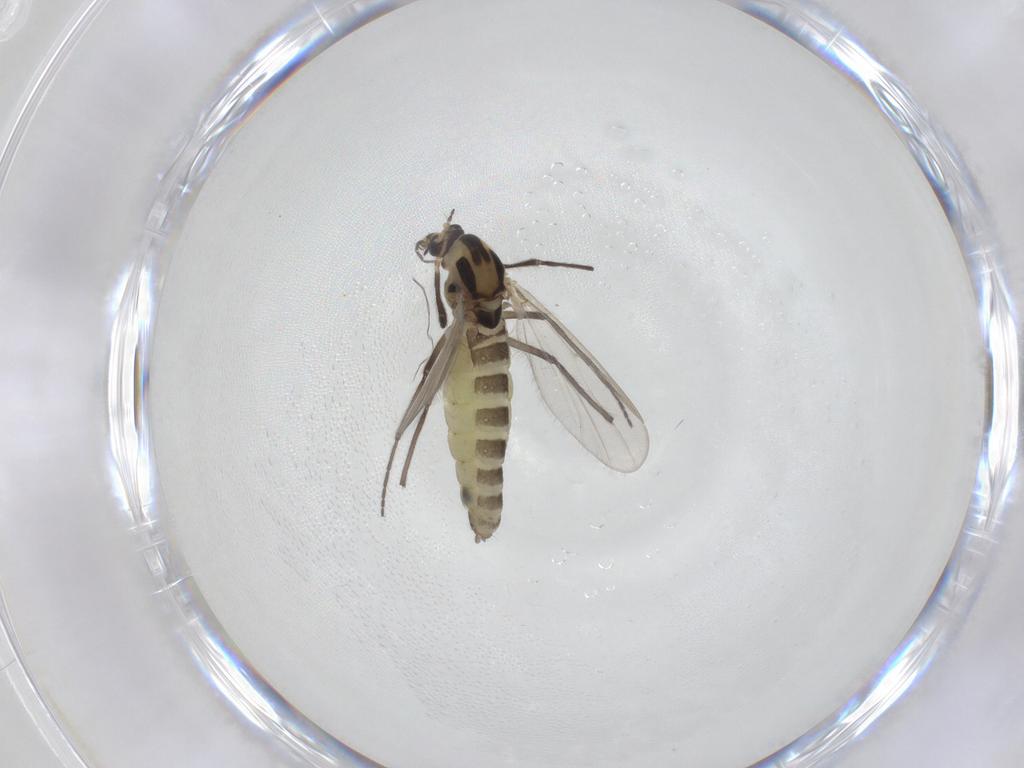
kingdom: Animalia
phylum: Arthropoda
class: Insecta
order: Diptera
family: Chironomidae
